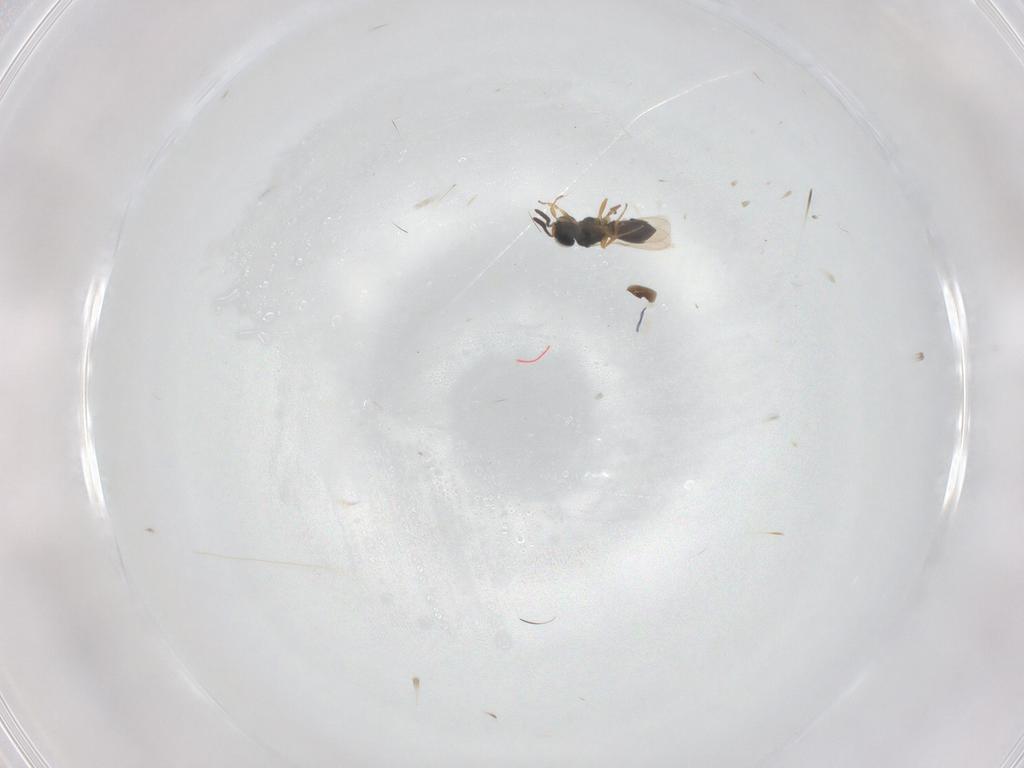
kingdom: Animalia
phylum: Arthropoda
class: Insecta
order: Hymenoptera
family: Scelionidae
